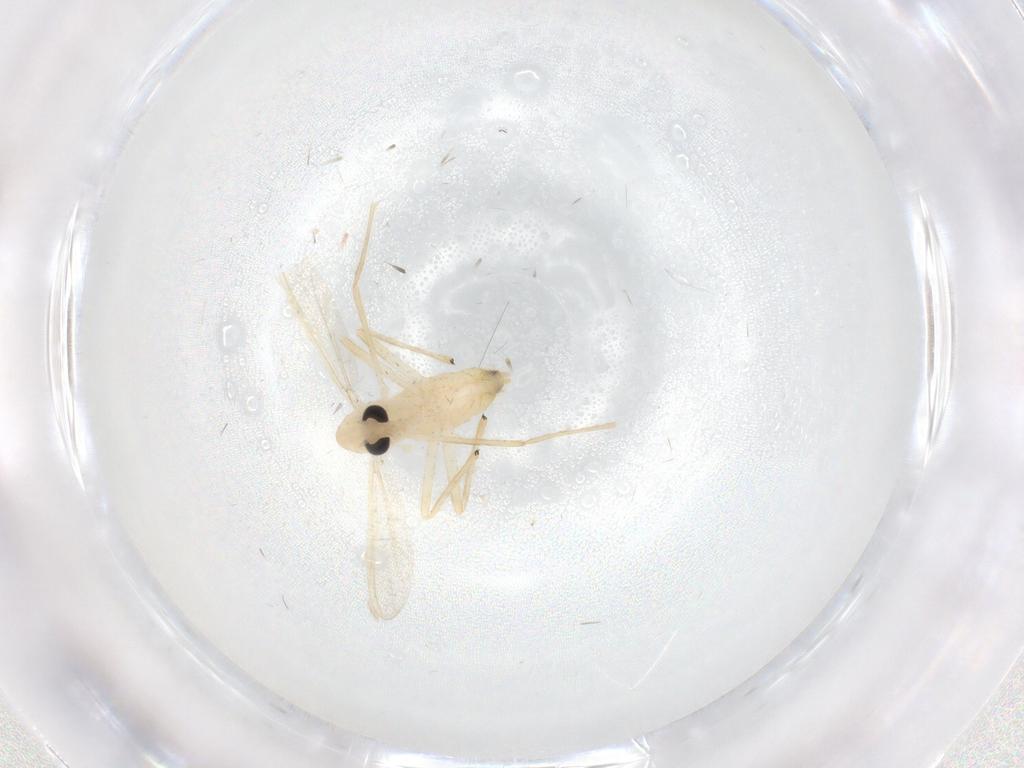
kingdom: Animalia
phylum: Arthropoda
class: Insecta
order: Diptera
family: Chironomidae
